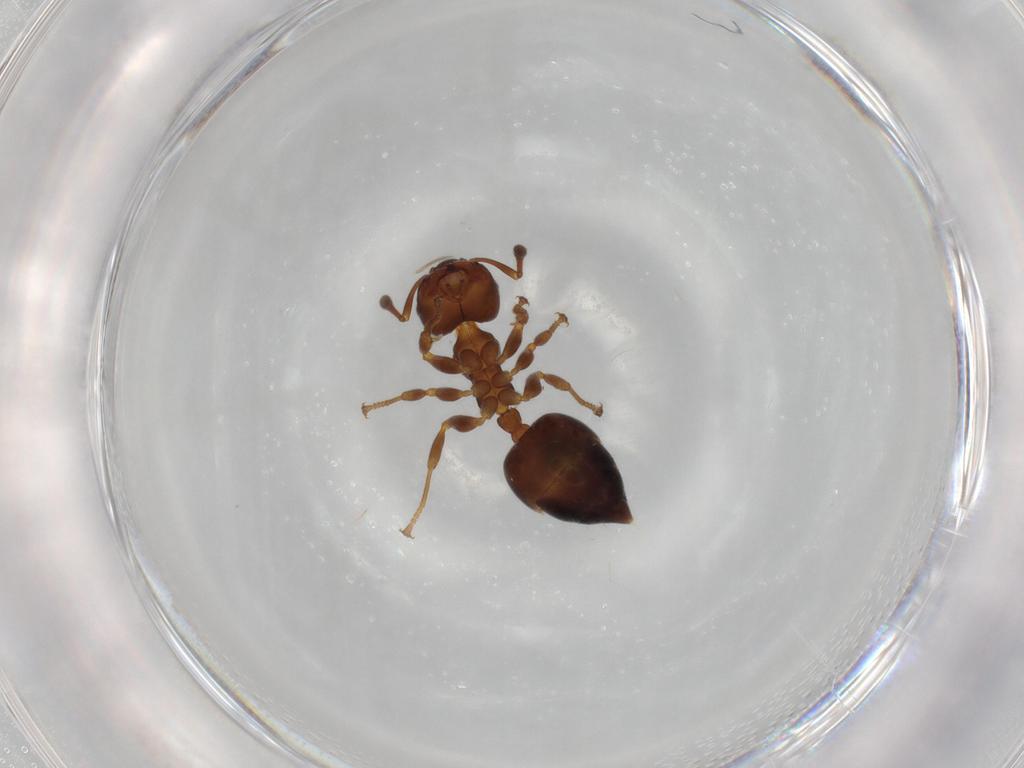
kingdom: Animalia
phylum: Arthropoda
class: Insecta
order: Hymenoptera
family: Formicidae
